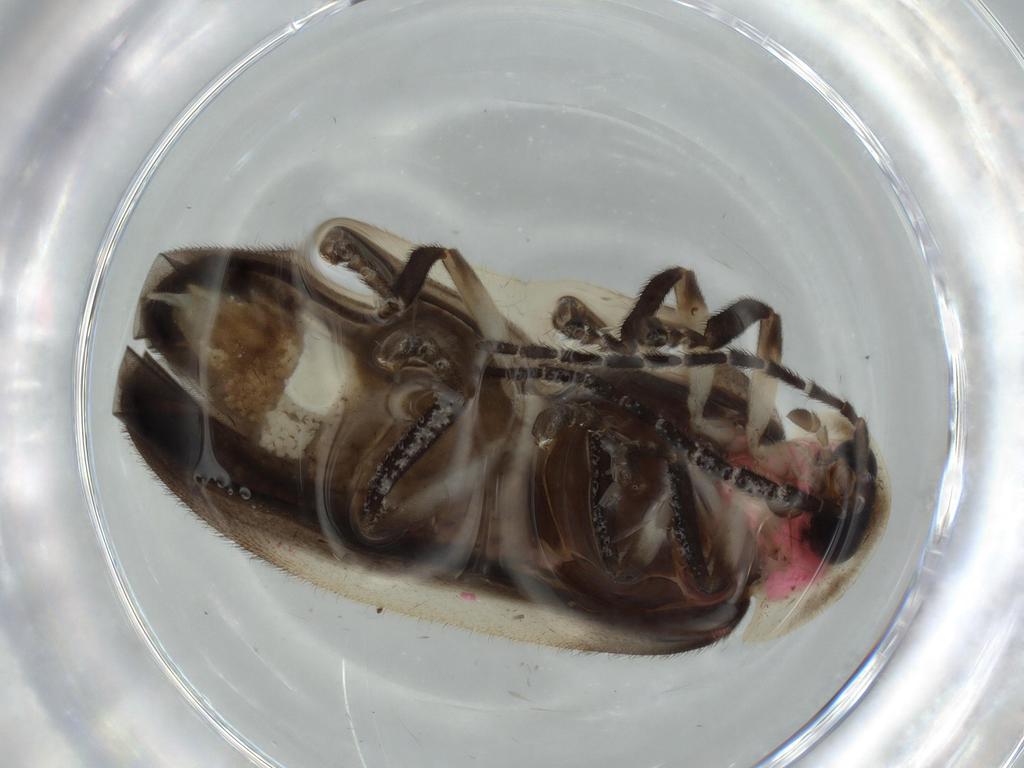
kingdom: Animalia
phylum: Arthropoda
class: Insecta
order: Coleoptera
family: Lampyridae
